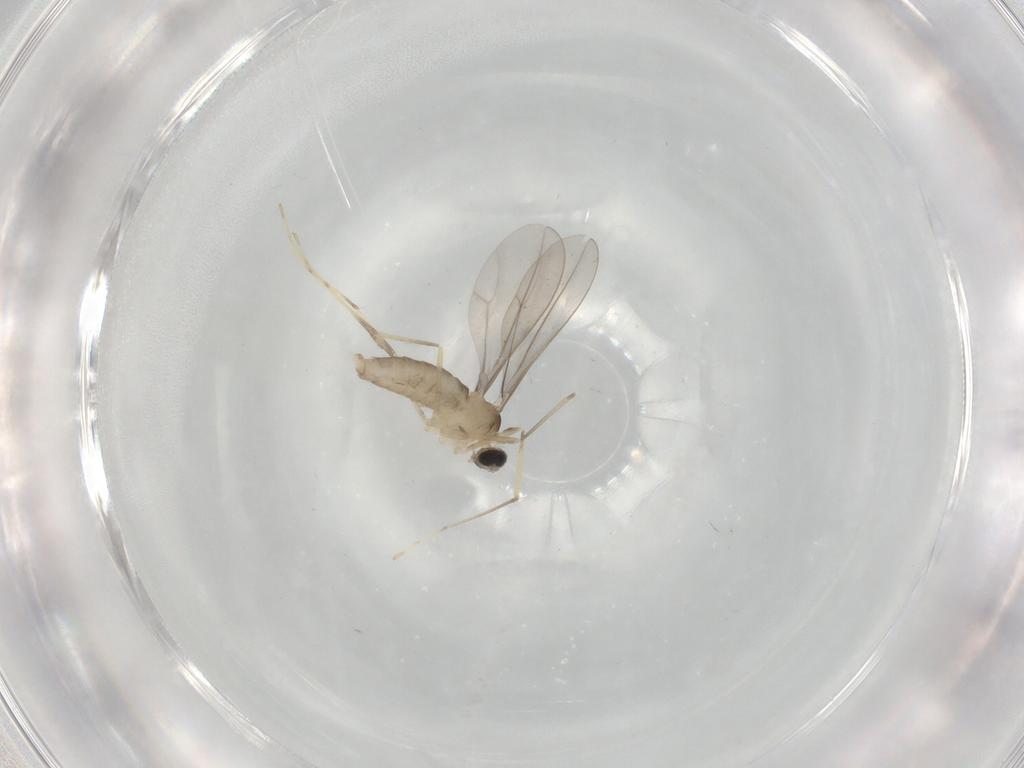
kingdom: Animalia
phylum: Arthropoda
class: Insecta
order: Diptera
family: Cecidomyiidae
